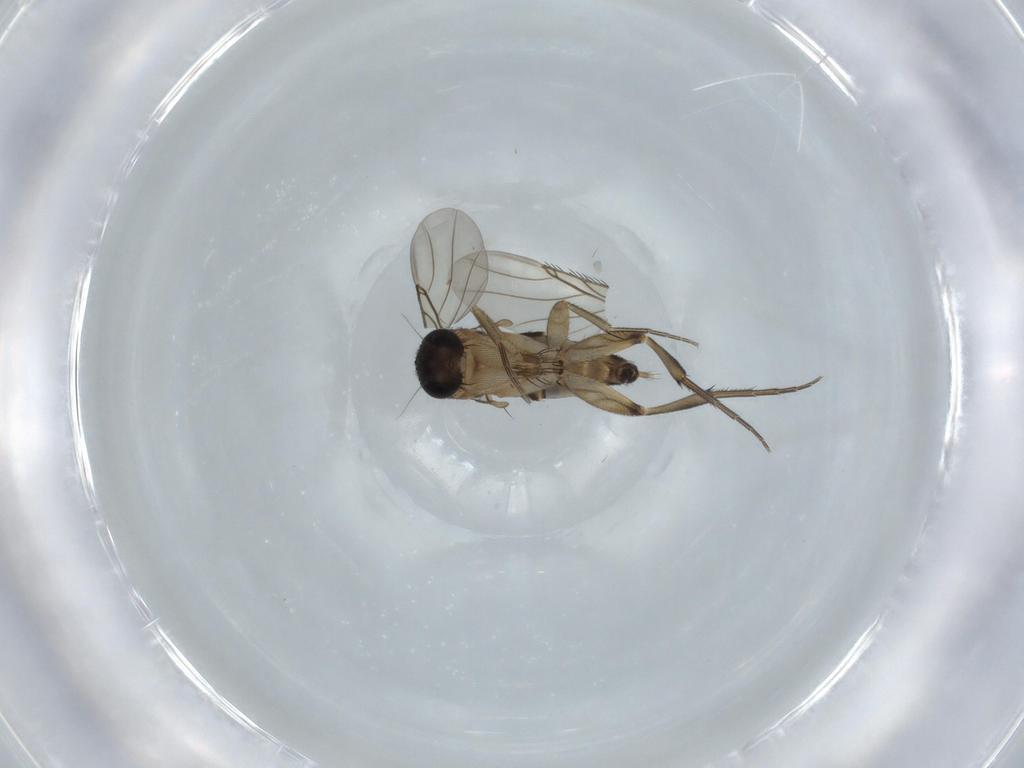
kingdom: Animalia
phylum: Arthropoda
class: Insecta
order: Diptera
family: Phoridae
